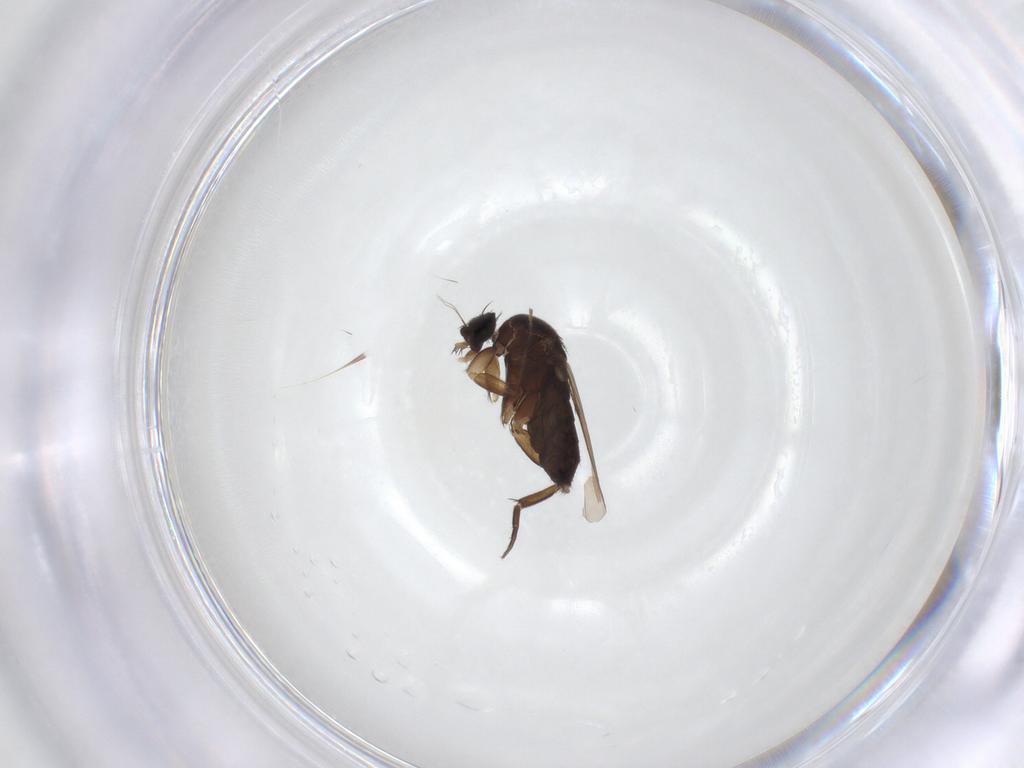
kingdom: Animalia
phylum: Arthropoda
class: Insecta
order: Diptera
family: Phoridae
